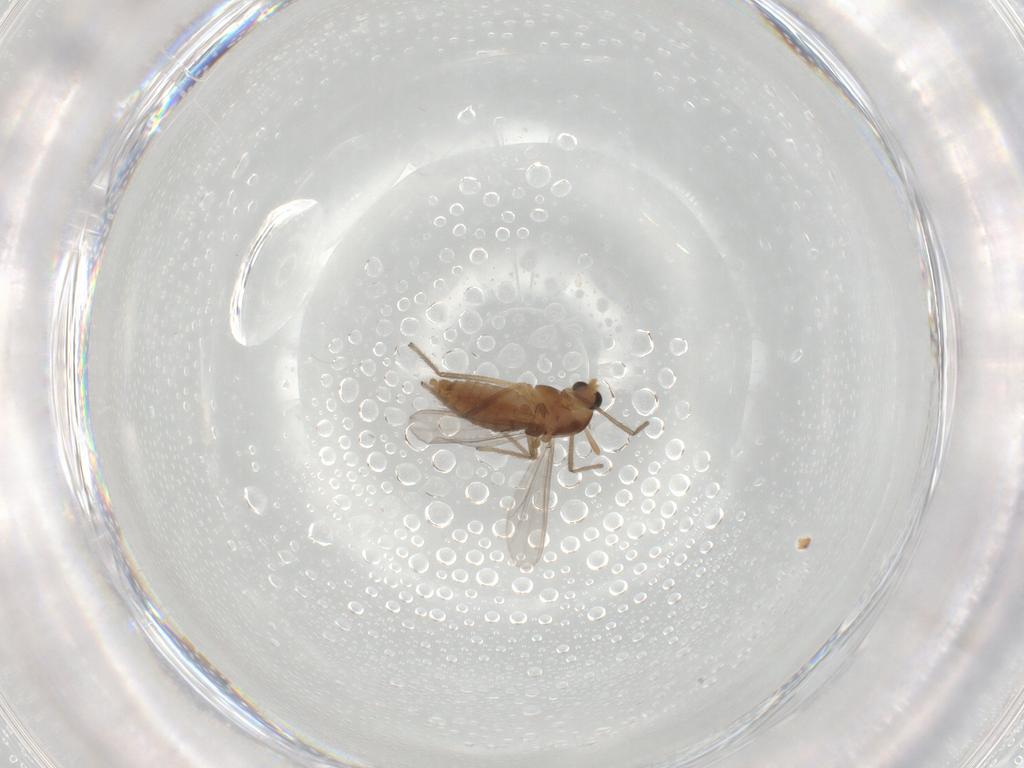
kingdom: Animalia
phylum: Arthropoda
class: Insecta
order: Diptera
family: Chironomidae
